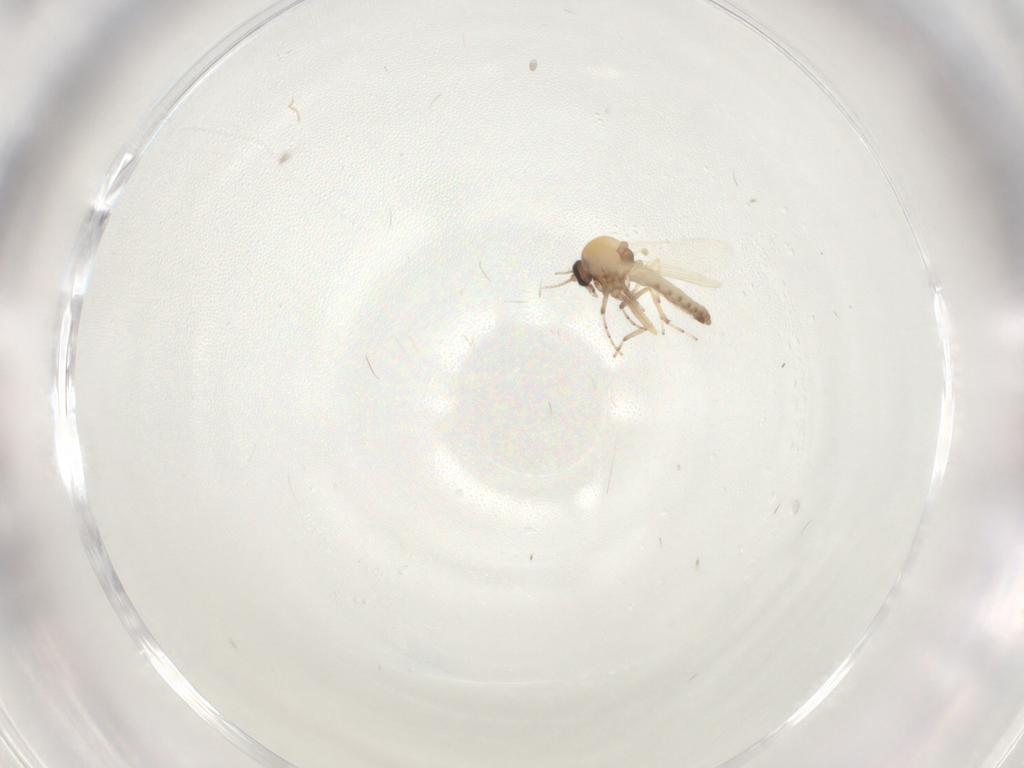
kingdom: Animalia
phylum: Arthropoda
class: Insecta
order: Diptera
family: Ceratopogonidae
